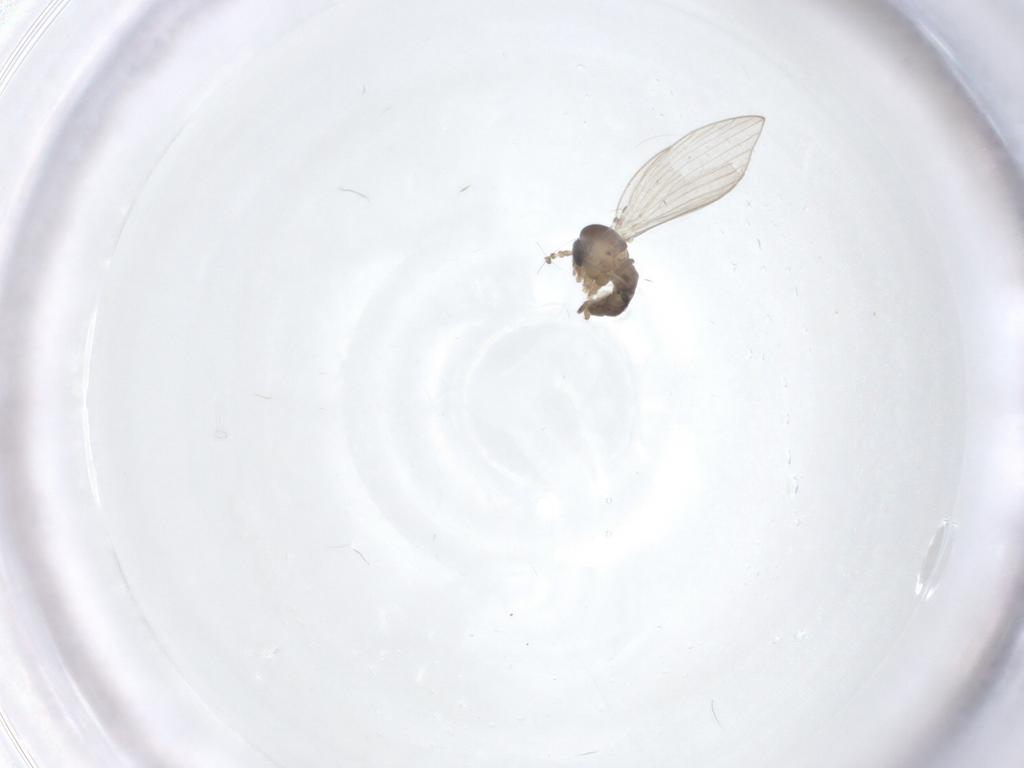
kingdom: Animalia
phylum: Arthropoda
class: Insecta
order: Diptera
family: Psychodidae
